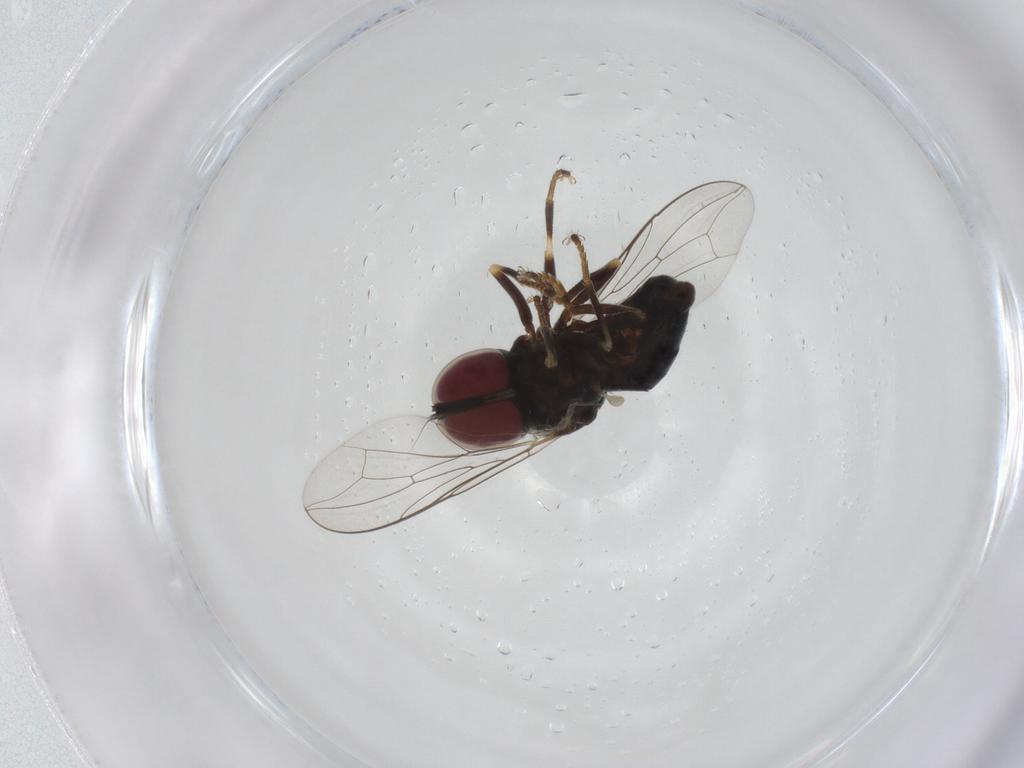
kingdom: Animalia
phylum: Arthropoda
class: Insecta
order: Diptera
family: Pipunculidae
